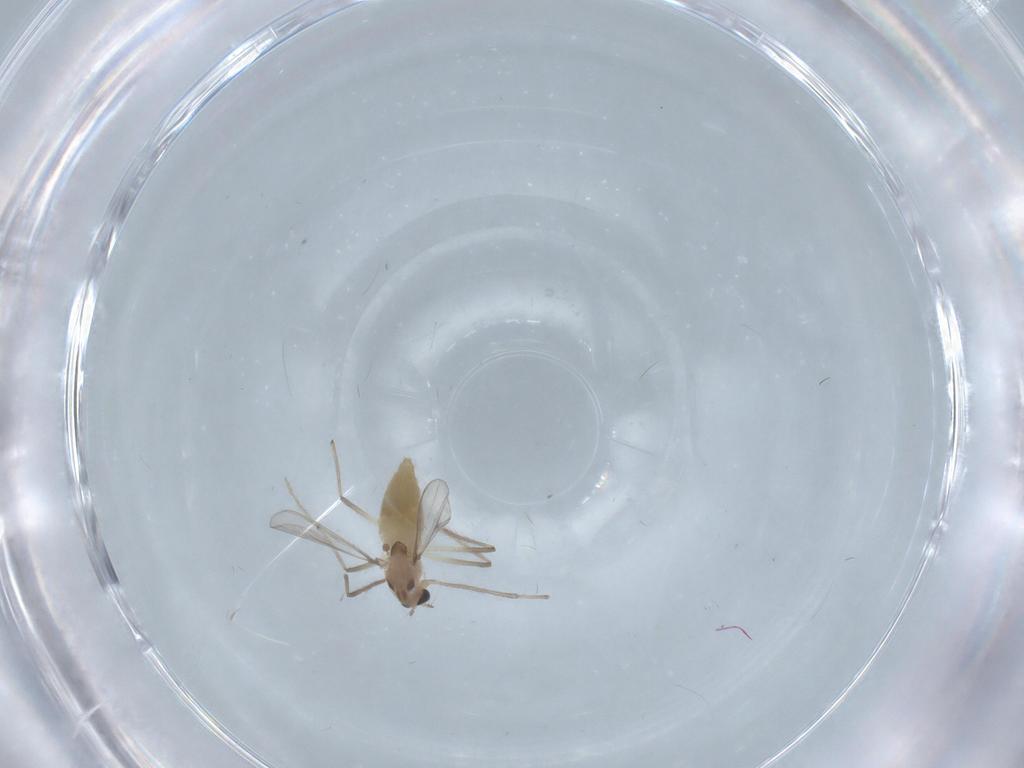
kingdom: Animalia
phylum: Arthropoda
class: Insecta
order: Diptera
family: Chironomidae
